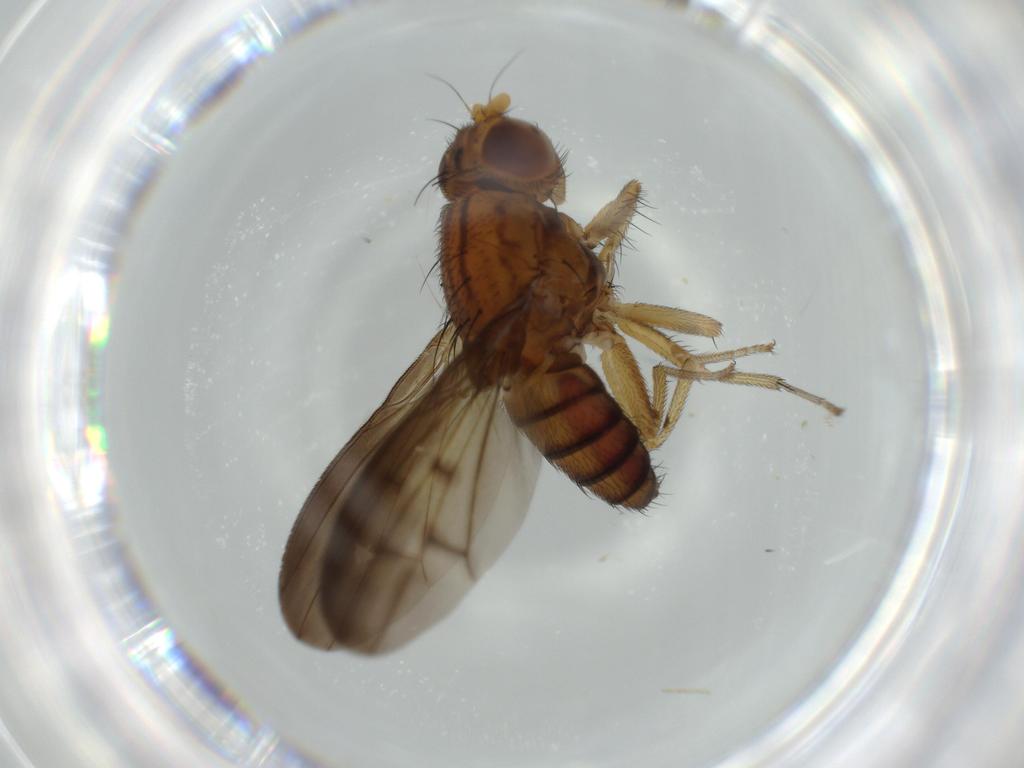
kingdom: Animalia
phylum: Arthropoda
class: Insecta
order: Diptera
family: Lauxaniidae
